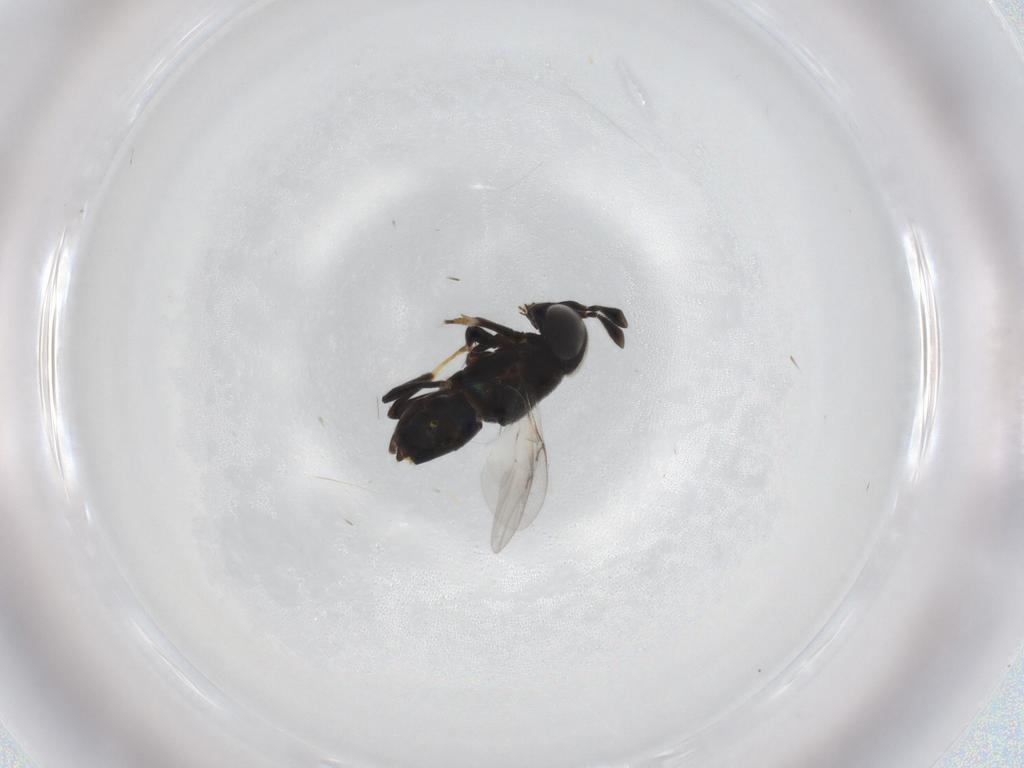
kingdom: Animalia
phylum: Arthropoda
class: Insecta
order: Hymenoptera
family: Encyrtidae
